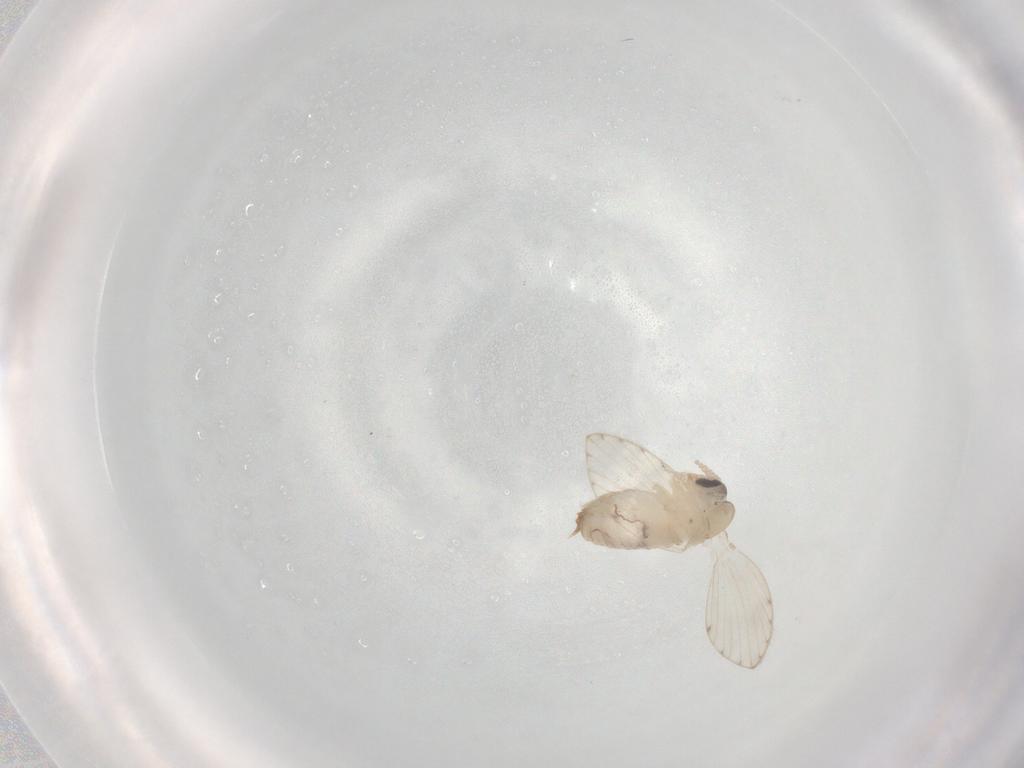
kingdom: Animalia
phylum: Arthropoda
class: Insecta
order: Diptera
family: Psychodidae
